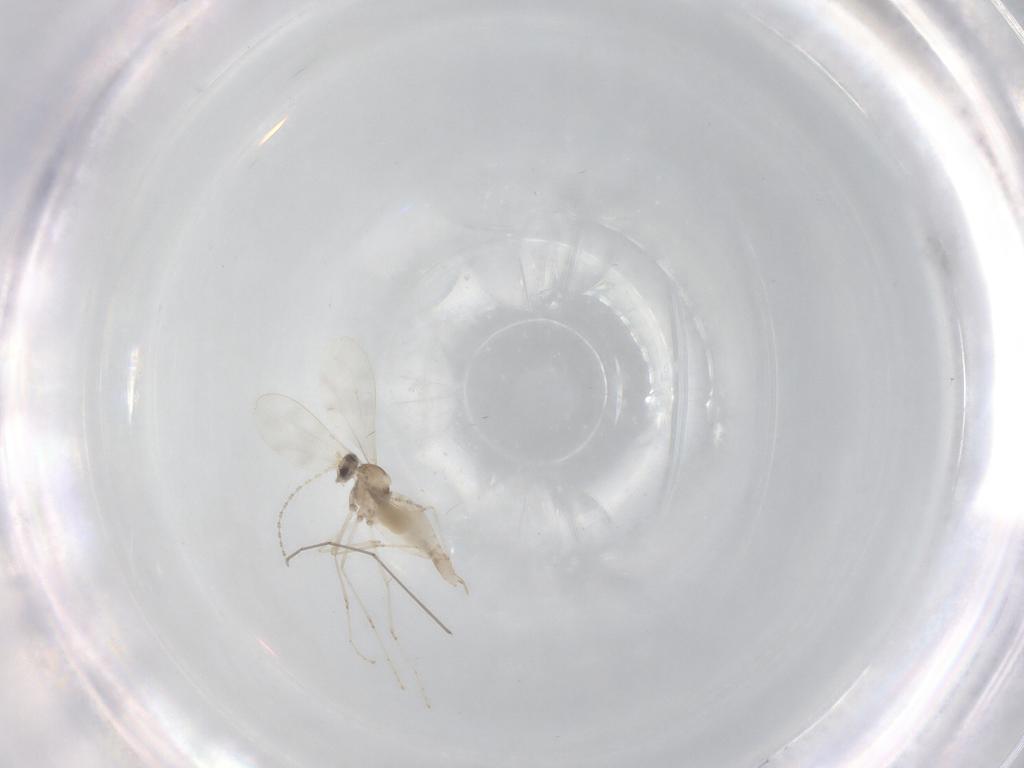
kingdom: Animalia
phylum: Arthropoda
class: Insecta
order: Diptera
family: Cecidomyiidae
